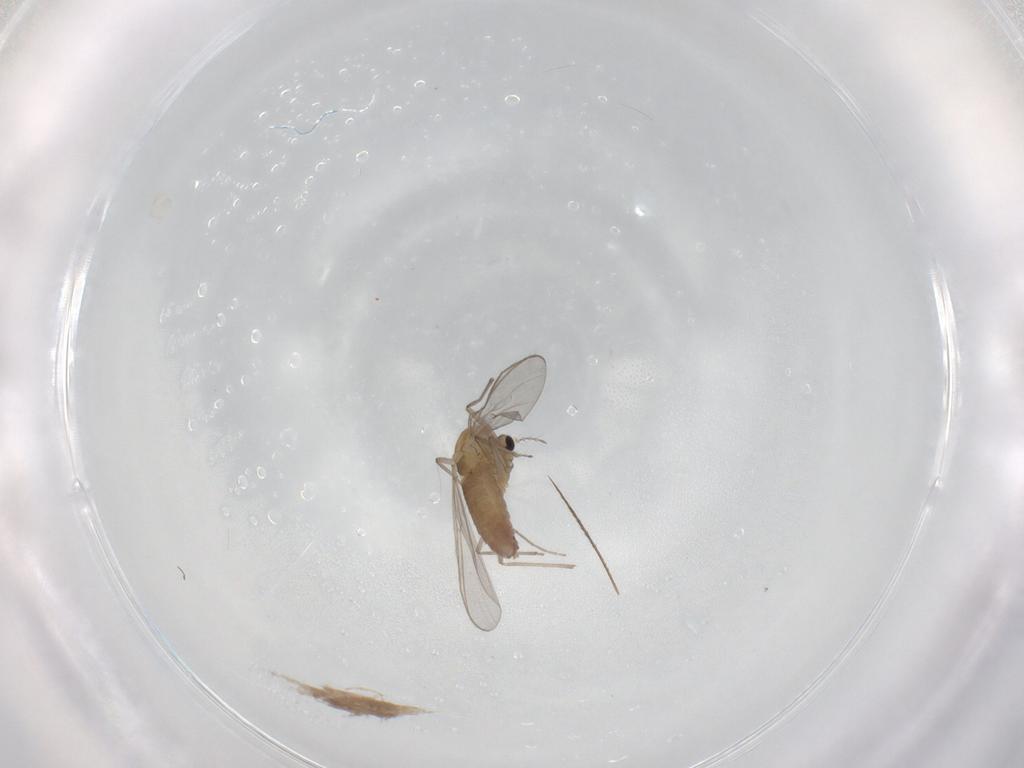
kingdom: Animalia
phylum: Arthropoda
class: Insecta
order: Diptera
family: Chironomidae
